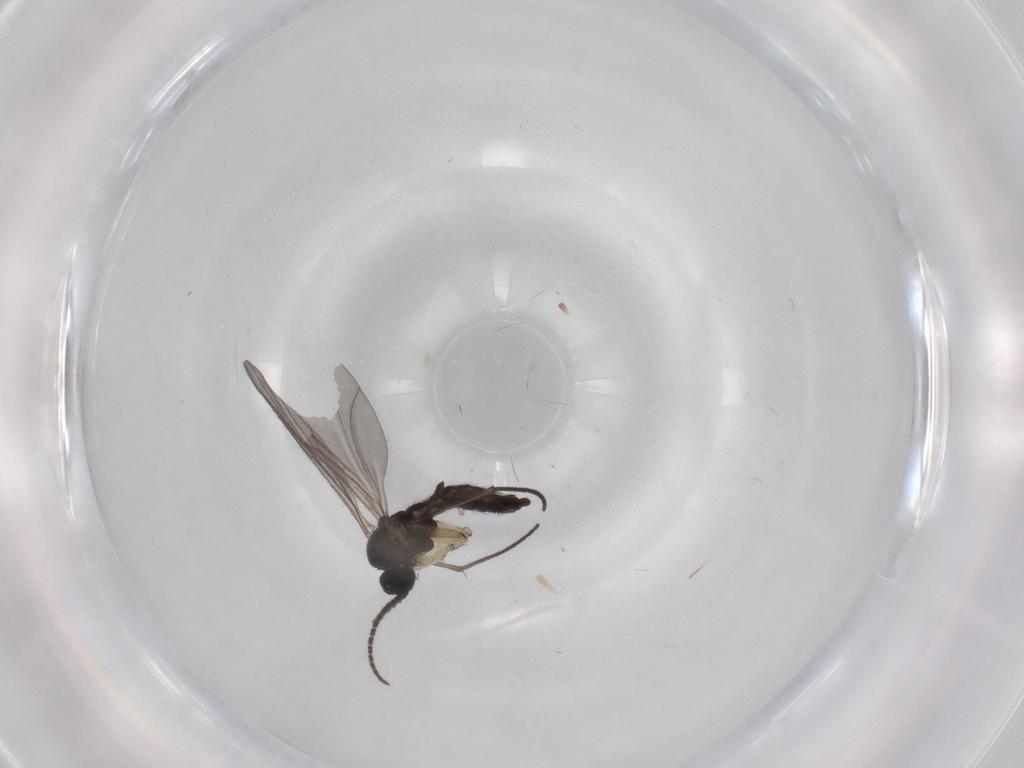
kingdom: Animalia
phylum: Arthropoda
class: Insecta
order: Diptera
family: Sciaridae
